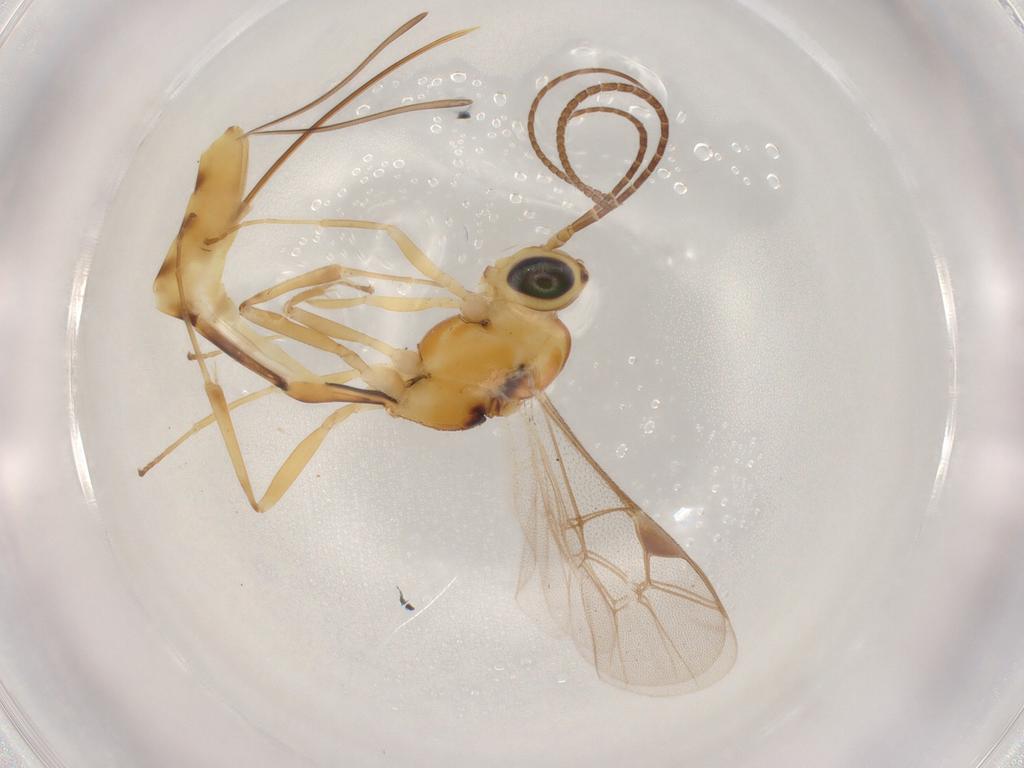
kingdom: Animalia
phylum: Arthropoda
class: Insecta
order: Hymenoptera
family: Ichneumonidae
